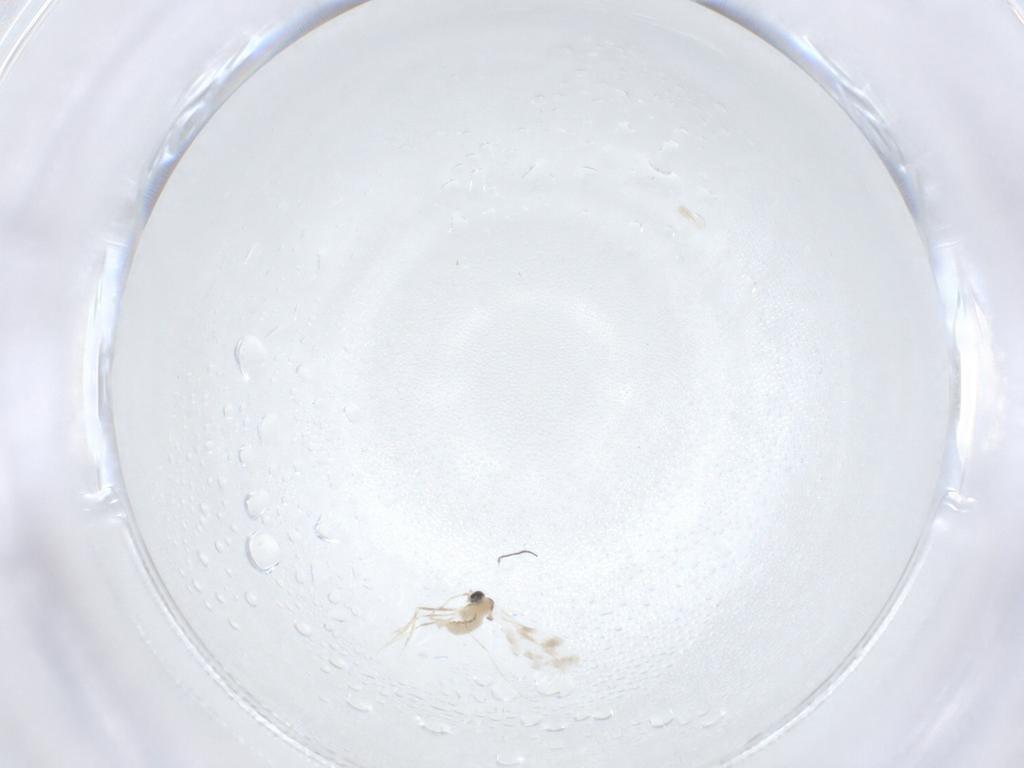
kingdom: Animalia
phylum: Arthropoda
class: Insecta
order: Diptera
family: Cecidomyiidae
